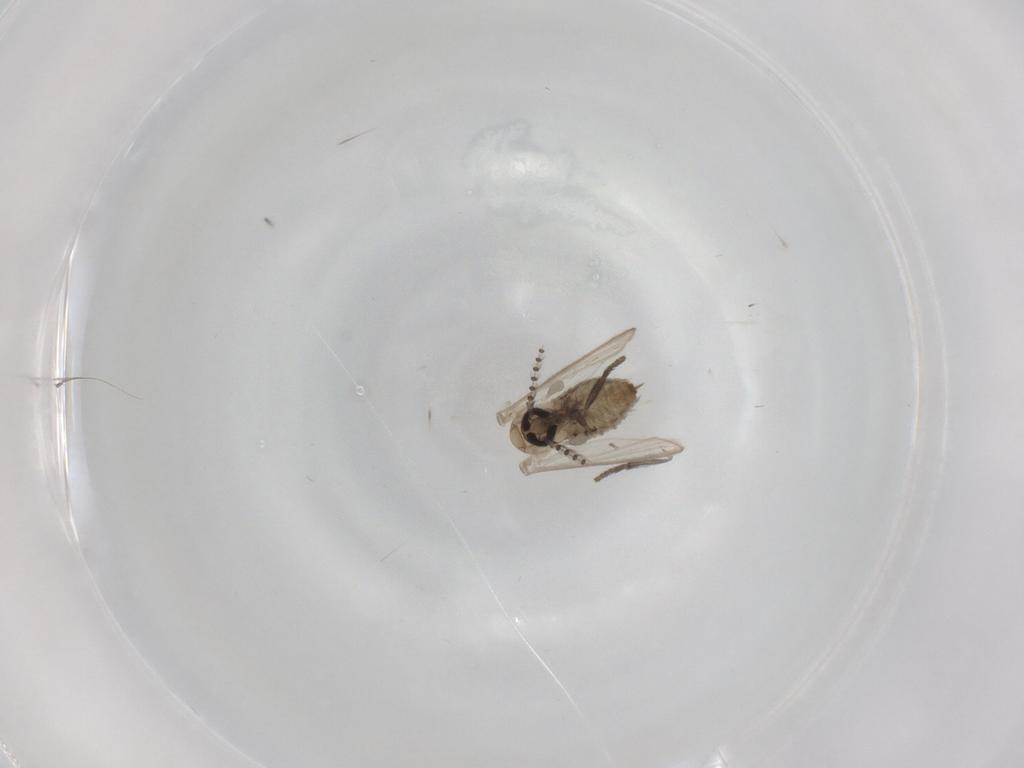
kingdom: Animalia
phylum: Arthropoda
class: Insecta
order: Diptera
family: Psychodidae
